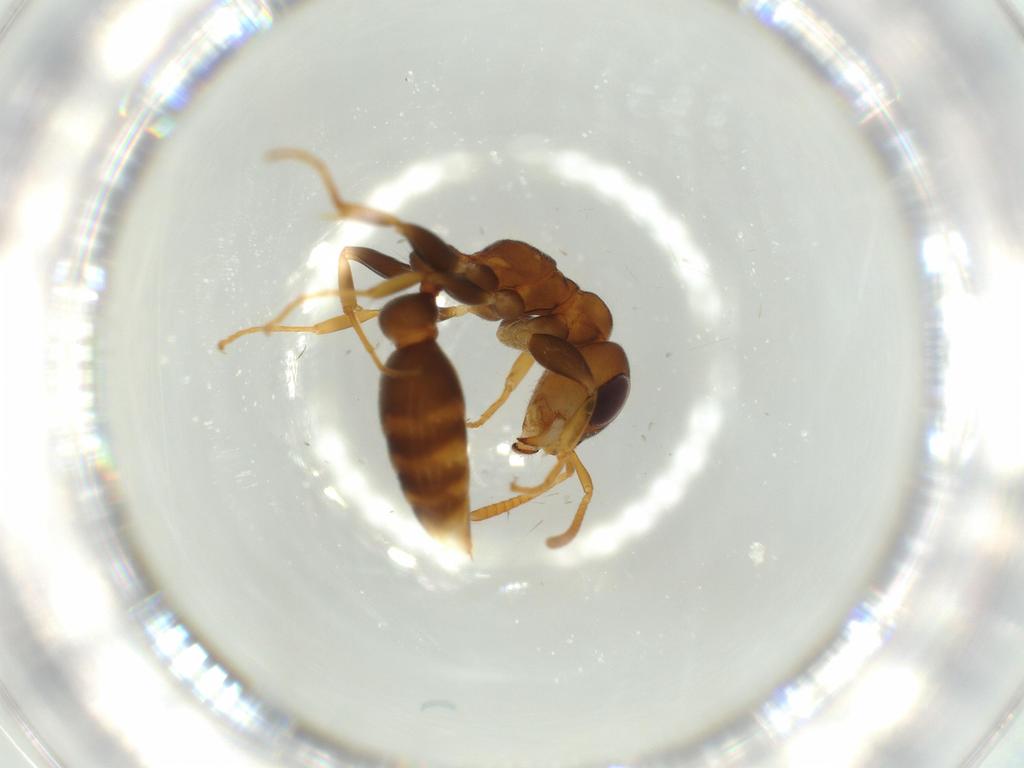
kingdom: Animalia
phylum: Arthropoda
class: Insecta
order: Hymenoptera
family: Formicidae
